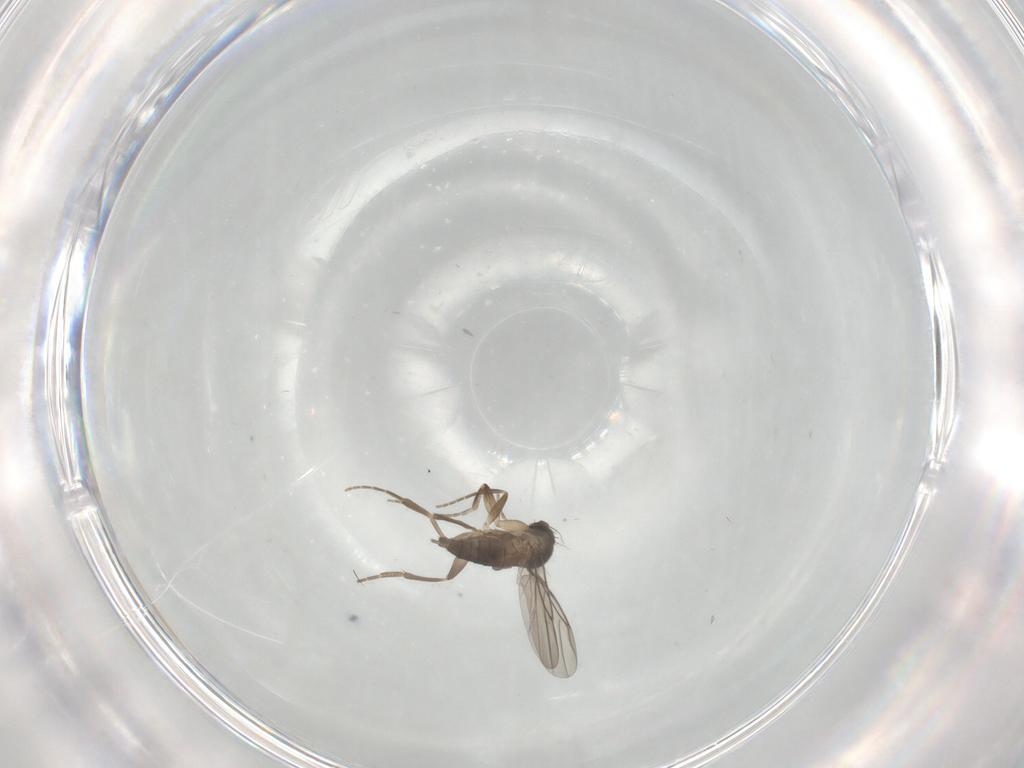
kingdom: Animalia
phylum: Arthropoda
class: Insecta
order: Diptera
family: Phoridae
